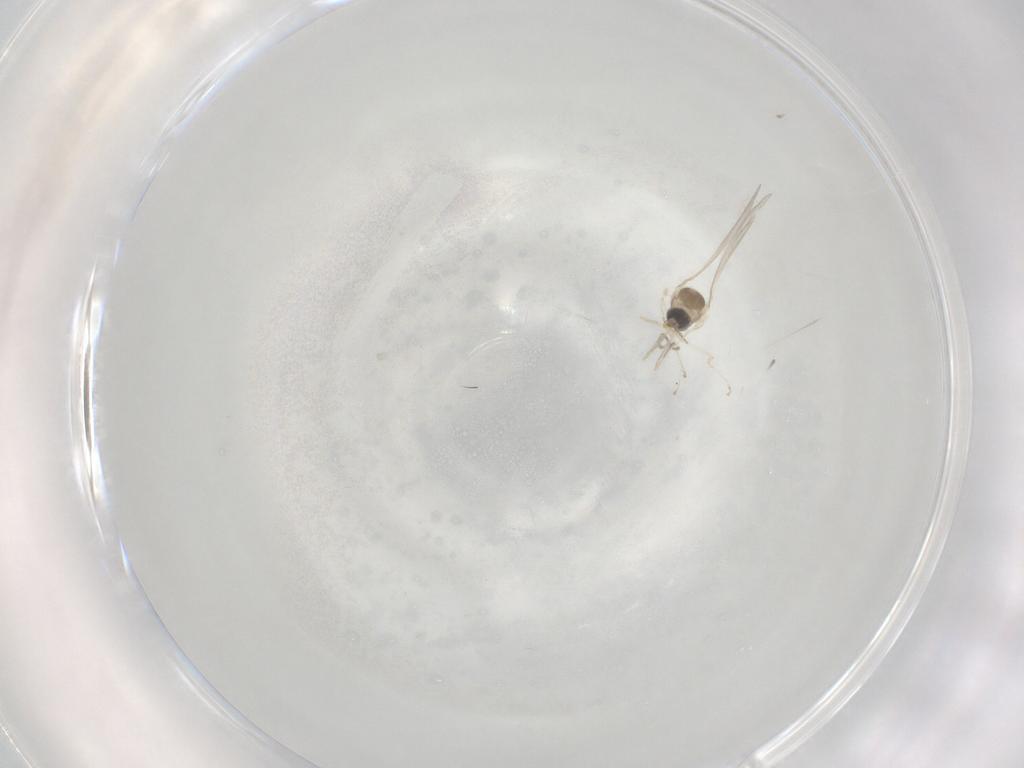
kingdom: Animalia
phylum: Arthropoda
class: Insecta
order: Diptera
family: Cecidomyiidae
